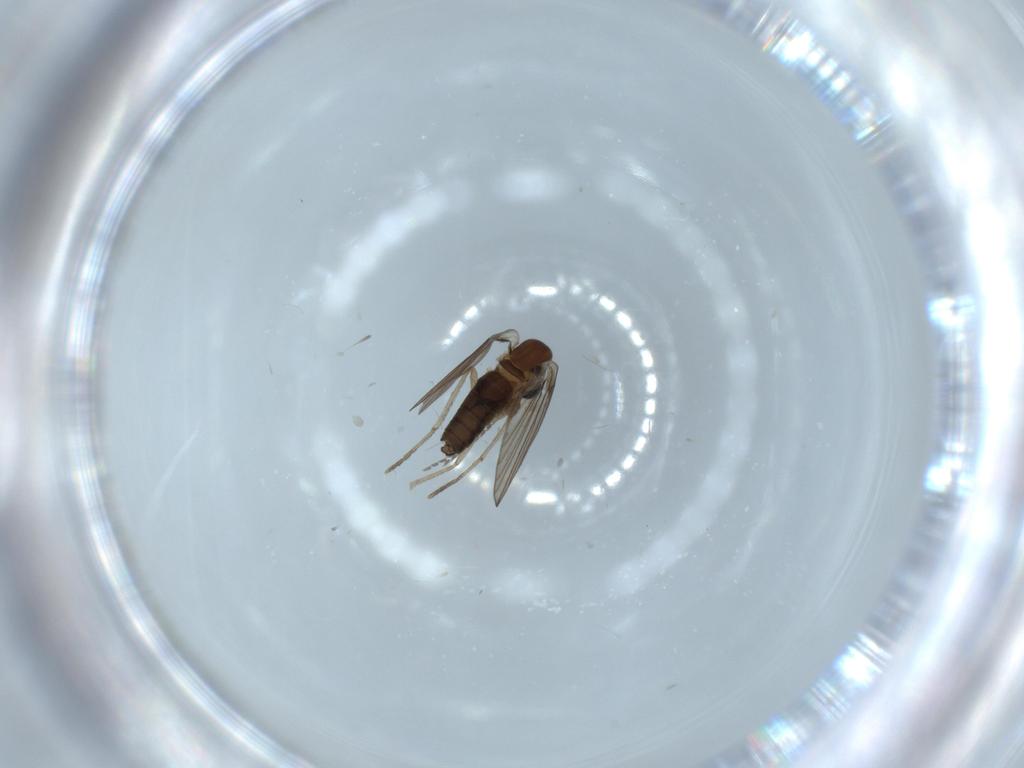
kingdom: Animalia
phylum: Arthropoda
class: Insecta
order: Diptera
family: Psychodidae
